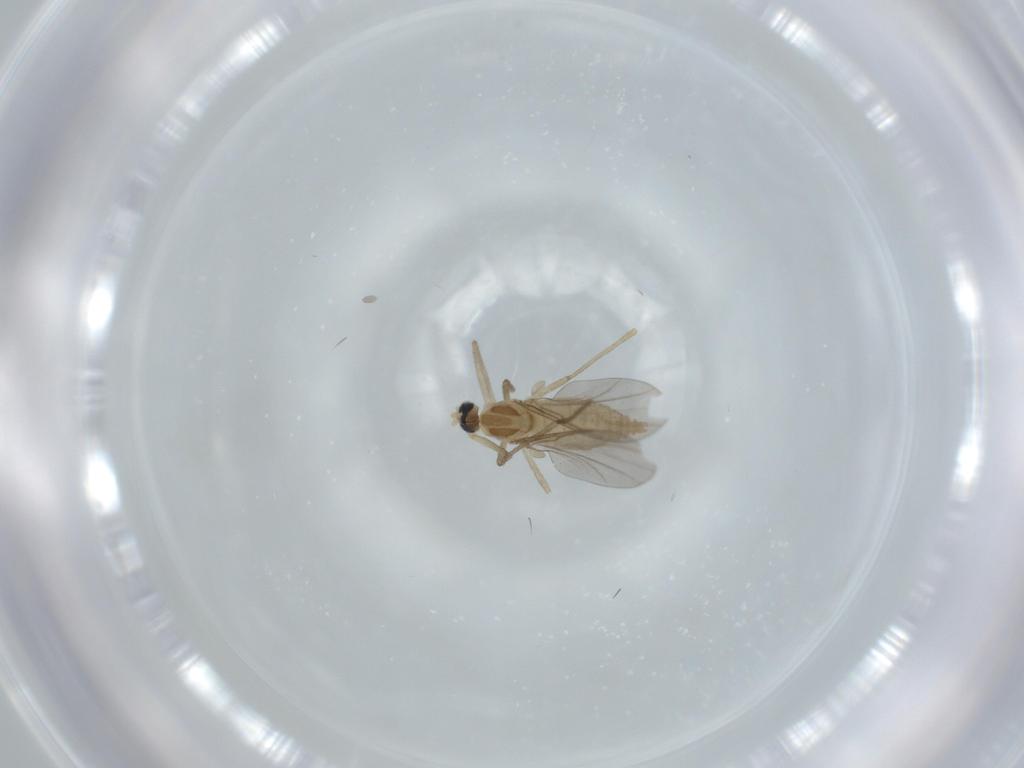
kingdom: Animalia
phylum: Arthropoda
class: Insecta
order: Diptera
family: Cecidomyiidae
